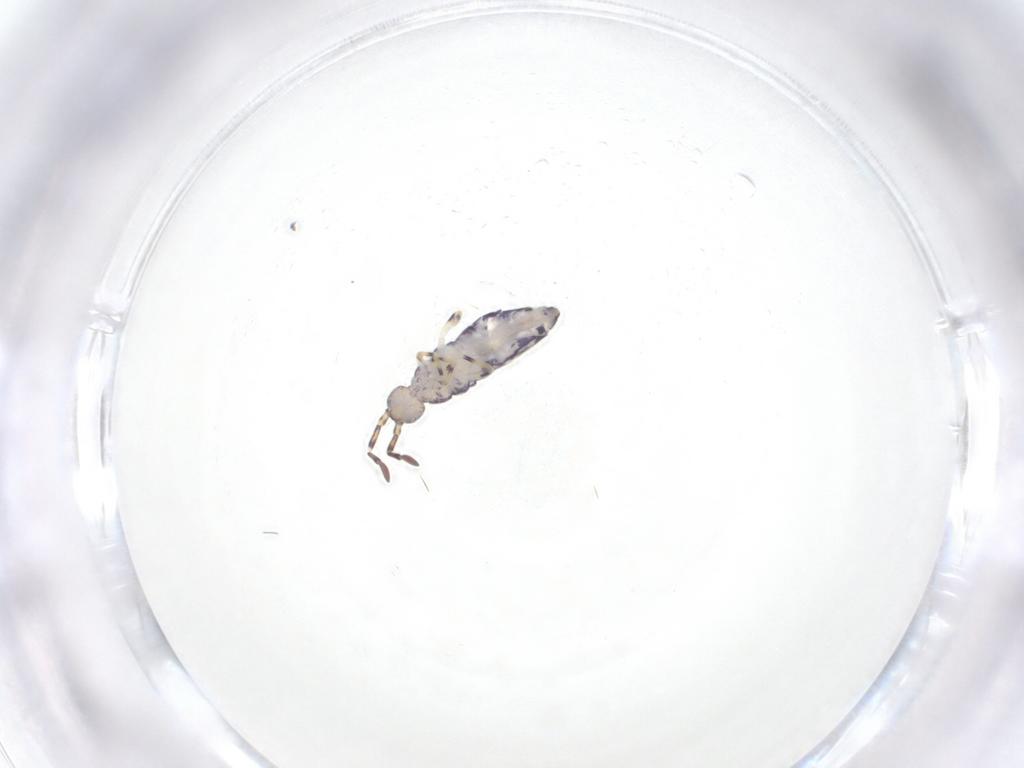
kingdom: Animalia
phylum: Arthropoda
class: Collembola
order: Entomobryomorpha
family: Entomobryidae
